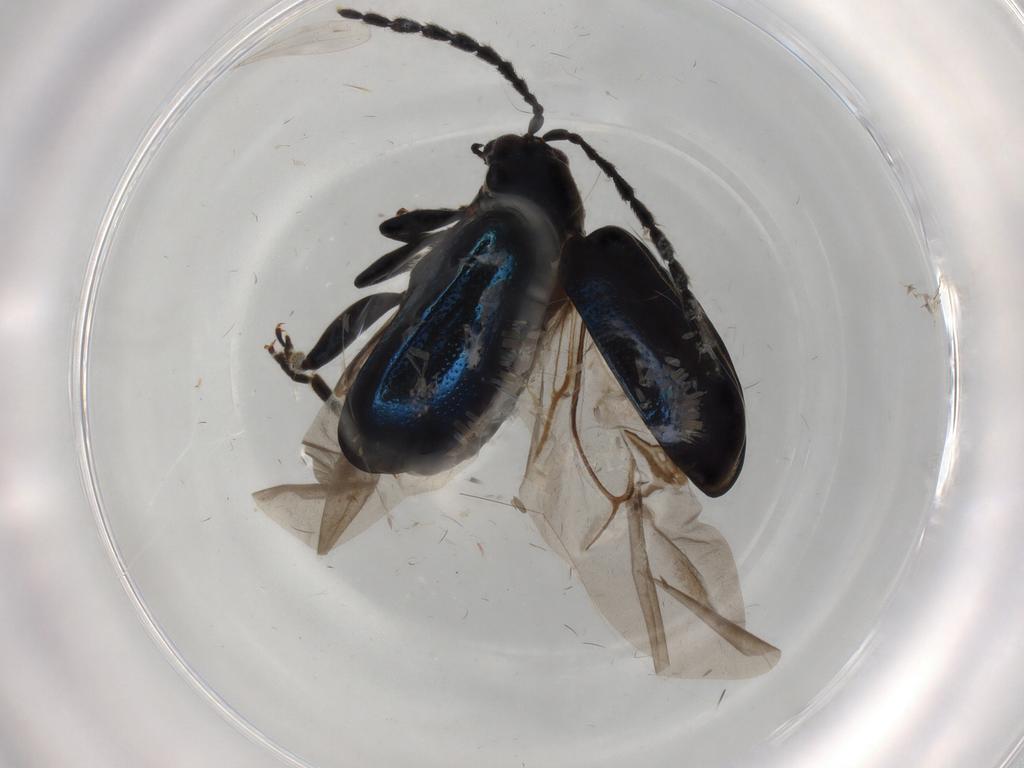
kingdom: Animalia
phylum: Arthropoda
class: Insecta
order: Coleoptera
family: Chrysomelidae
